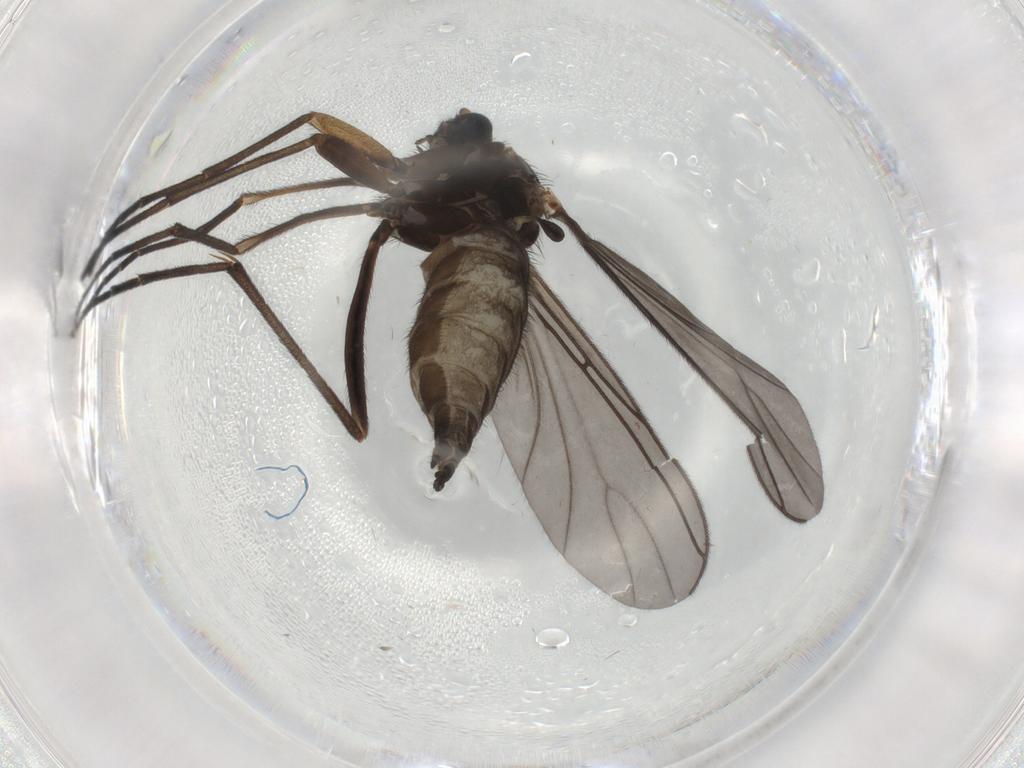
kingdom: Animalia
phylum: Arthropoda
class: Insecta
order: Diptera
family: Sciaridae
